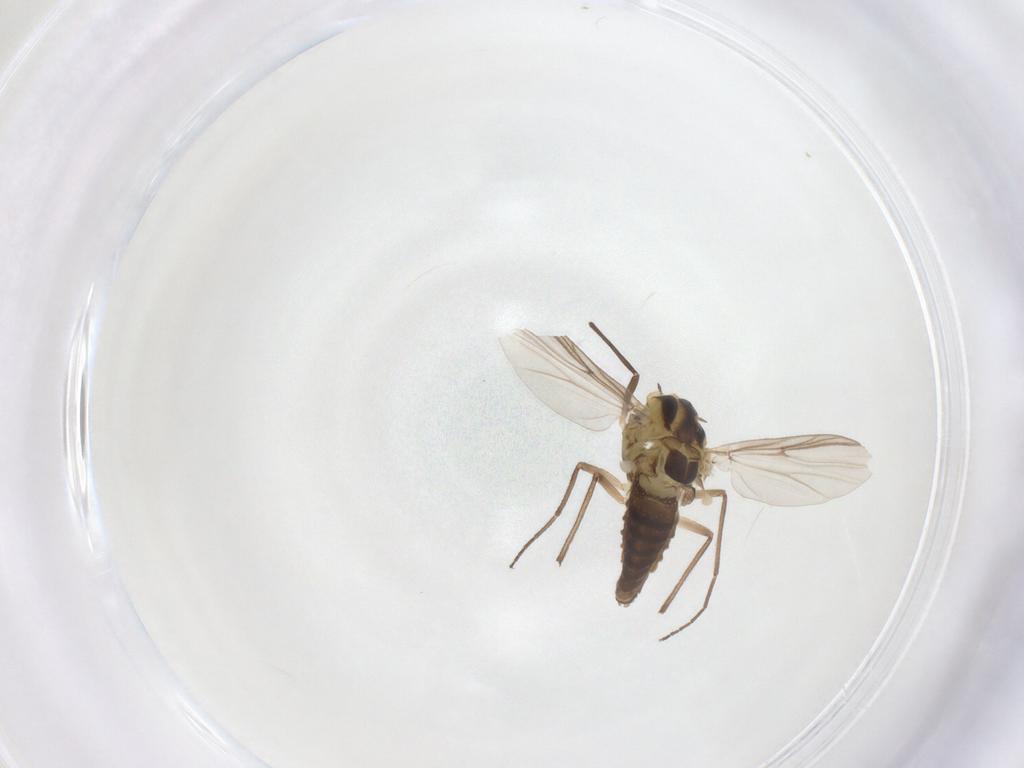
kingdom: Animalia
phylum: Arthropoda
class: Insecta
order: Diptera
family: Chironomidae
